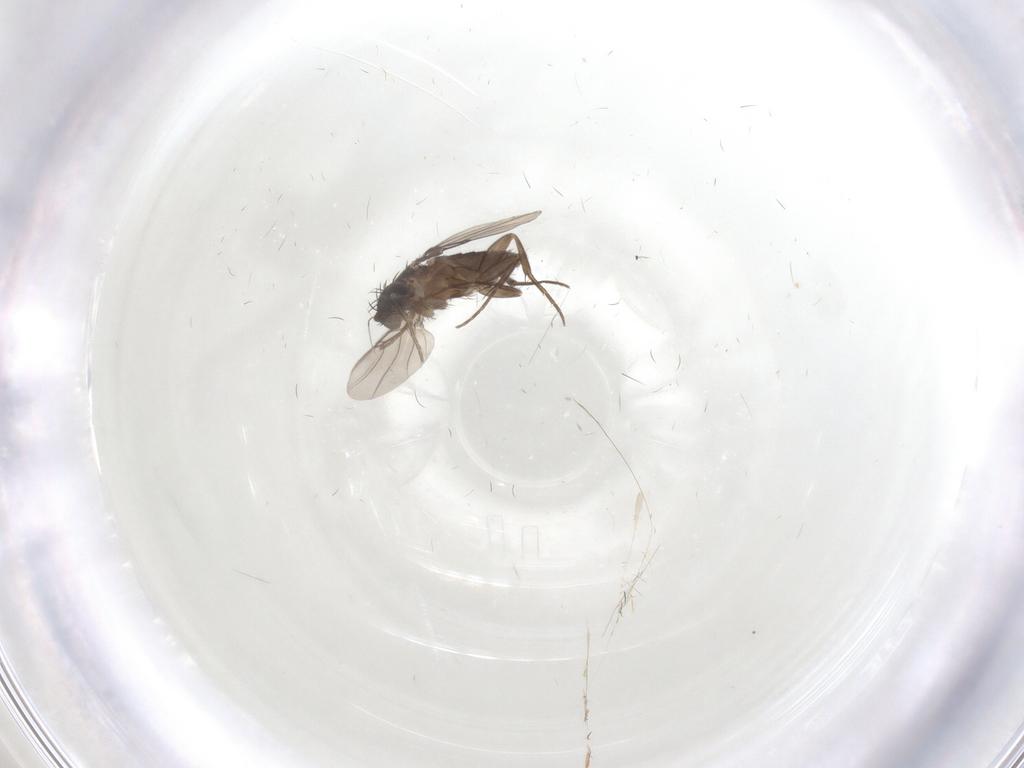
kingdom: Animalia
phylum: Arthropoda
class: Insecta
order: Diptera
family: Phoridae
